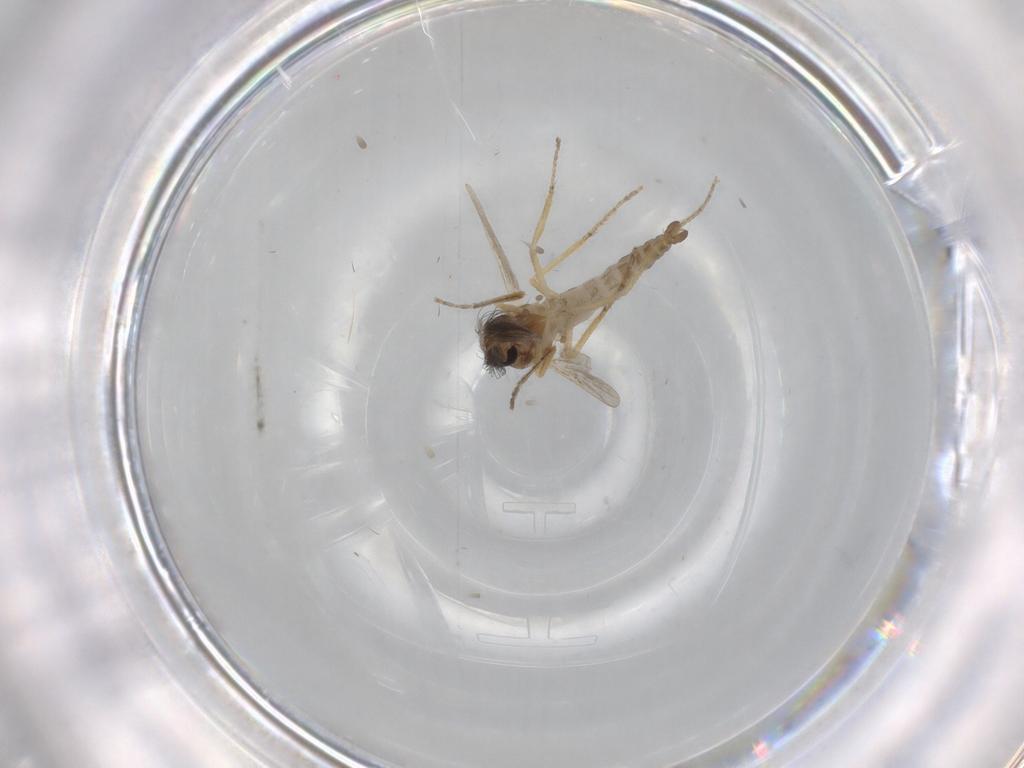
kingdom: Animalia
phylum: Arthropoda
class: Insecta
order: Diptera
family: Ceratopogonidae
